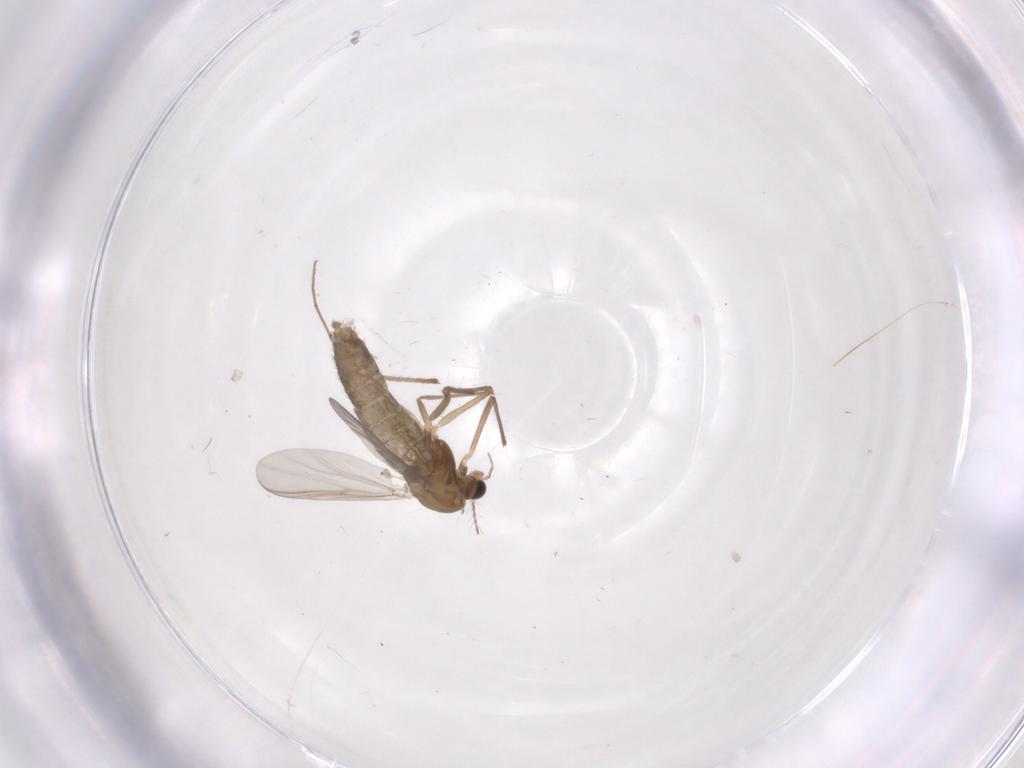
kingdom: Animalia
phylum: Arthropoda
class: Insecta
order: Diptera
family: Chironomidae
